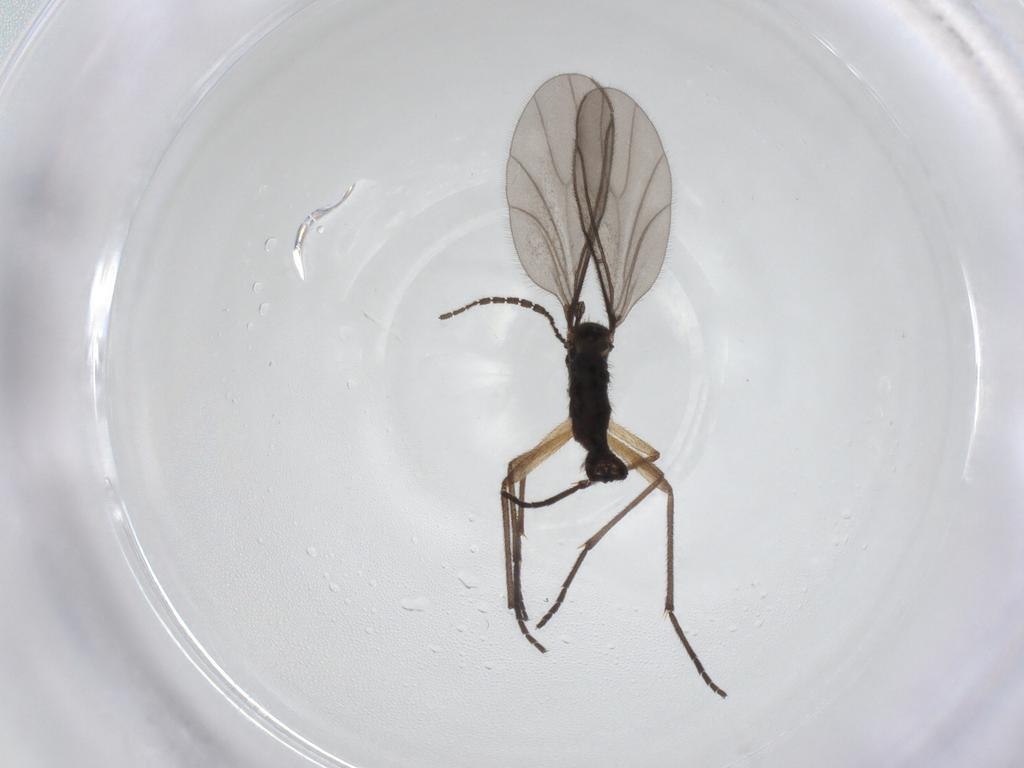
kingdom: Animalia
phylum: Arthropoda
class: Insecta
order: Diptera
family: Sciaridae
